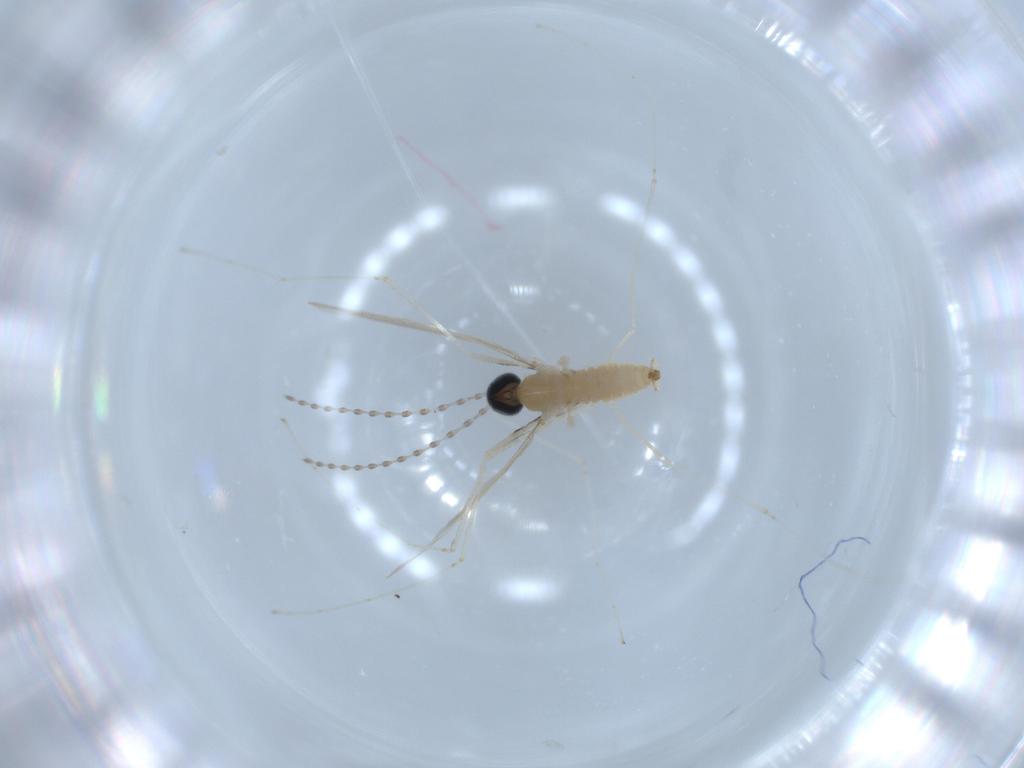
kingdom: Animalia
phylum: Arthropoda
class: Insecta
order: Diptera
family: Cecidomyiidae
